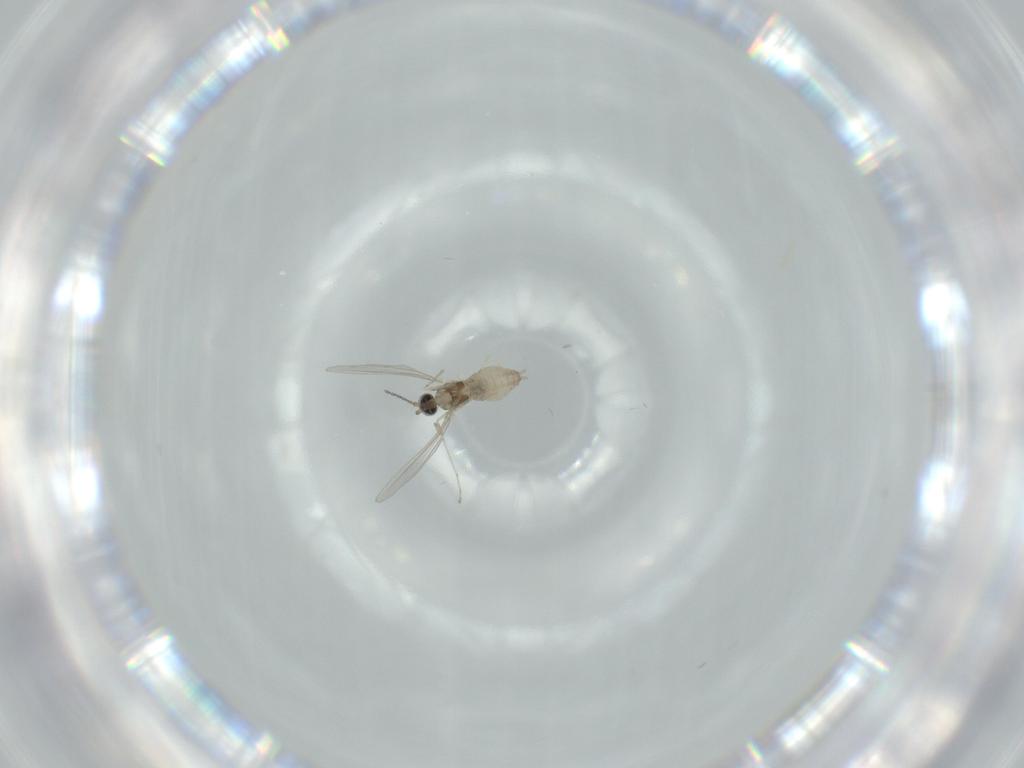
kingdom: Animalia
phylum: Arthropoda
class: Insecta
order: Diptera
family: Cecidomyiidae
